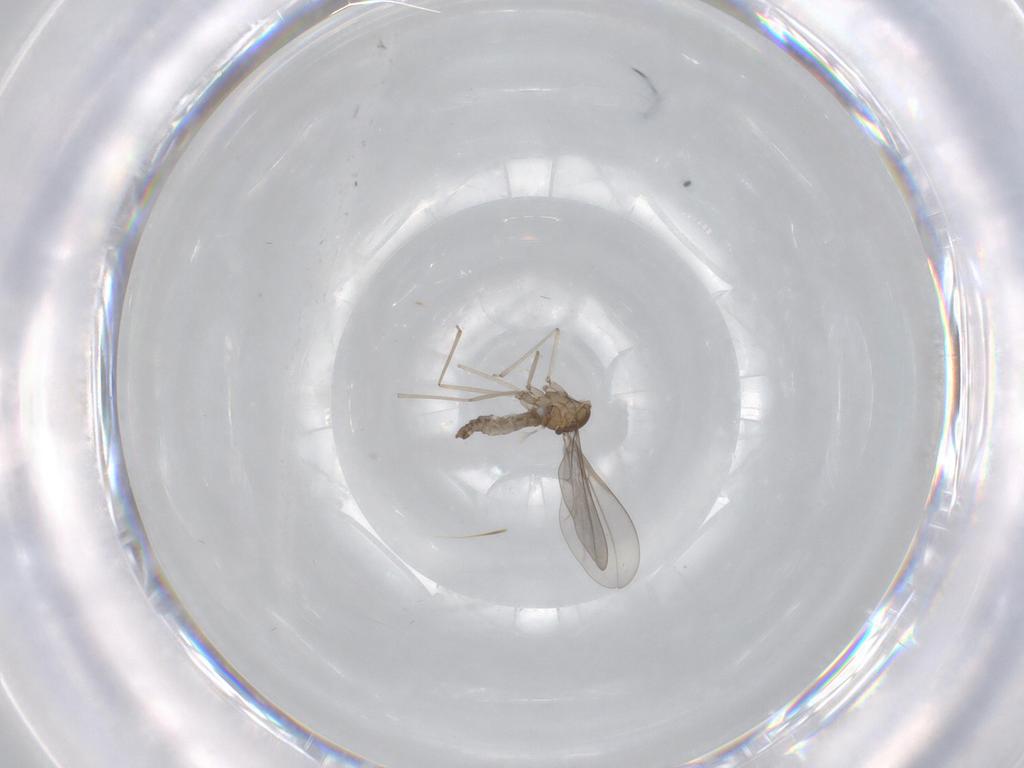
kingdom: Animalia
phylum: Arthropoda
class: Insecta
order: Diptera
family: Cecidomyiidae
